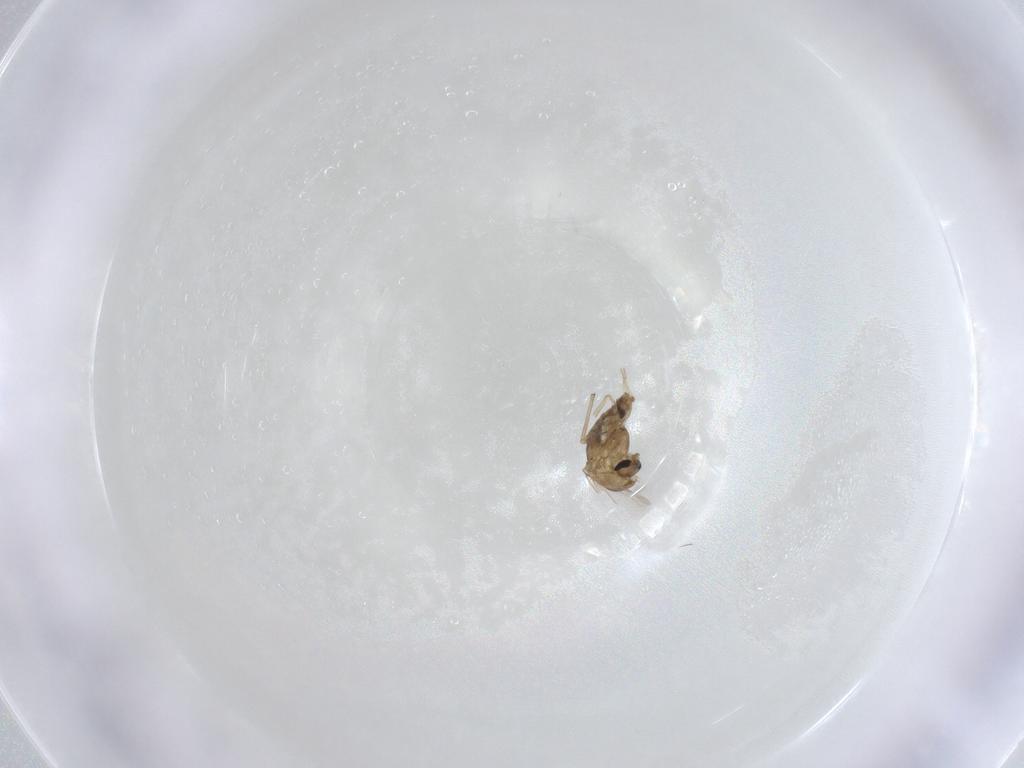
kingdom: Animalia
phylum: Arthropoda
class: Insecta
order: Diptera
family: Chironomidae
